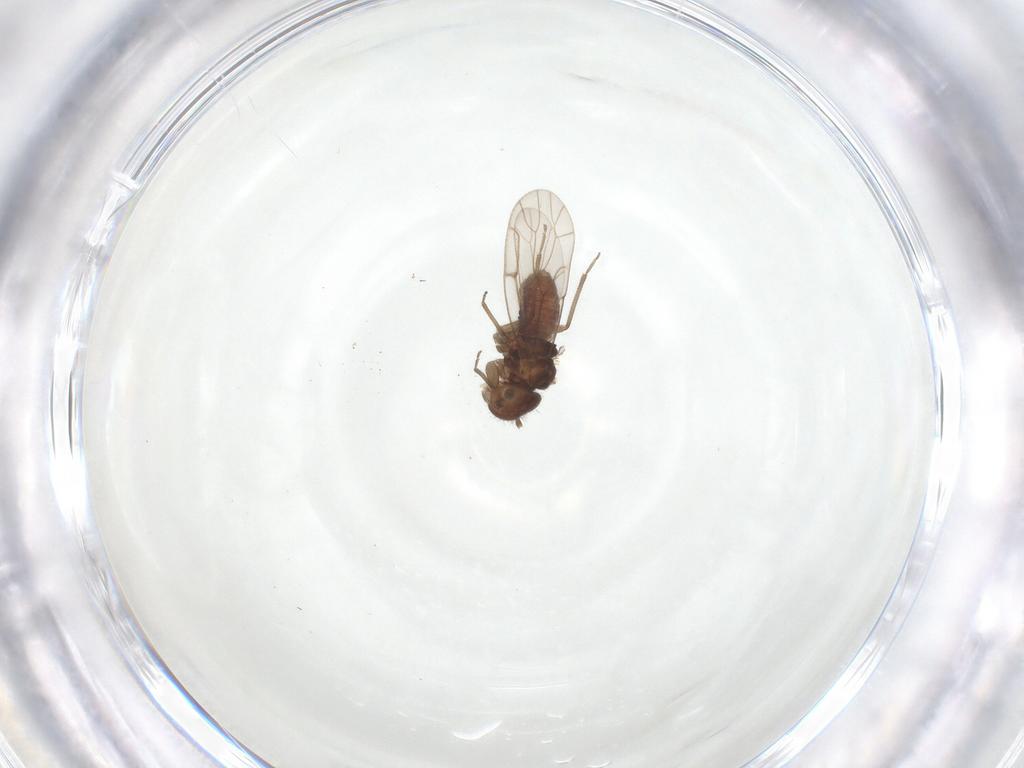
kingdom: Animalia
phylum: Arthropoda
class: Insecta
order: Psocodea
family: Ectopsocidae
